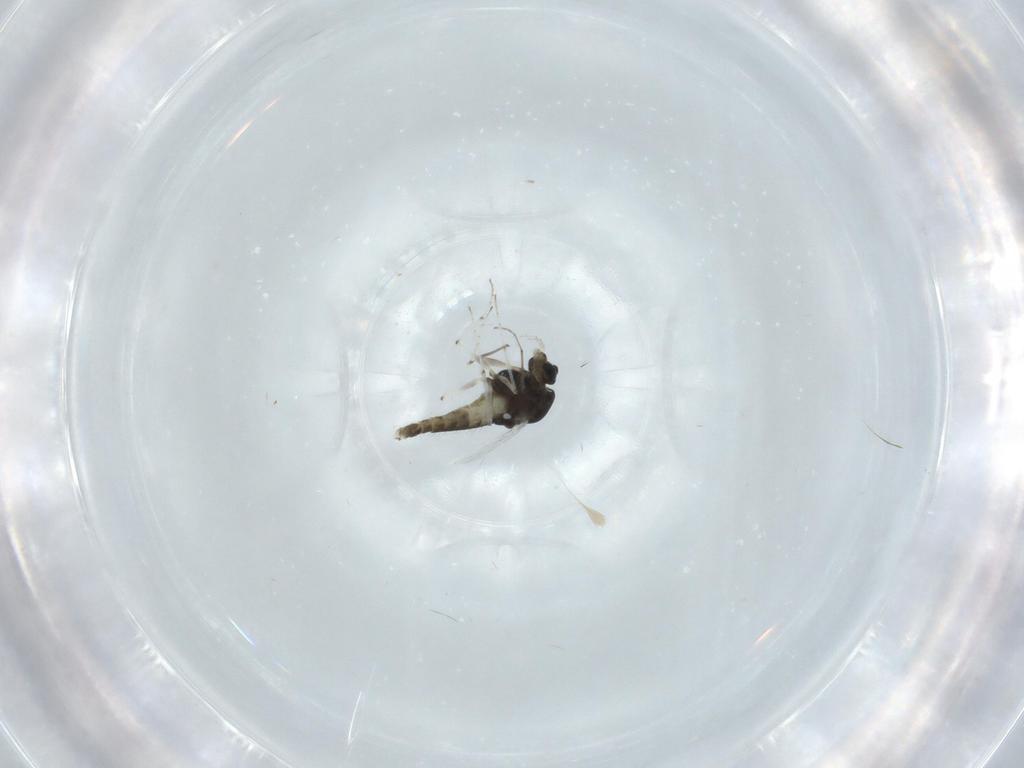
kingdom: Animalia
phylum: Arthropoda
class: Insecta
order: Diptera
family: Chironomidae
